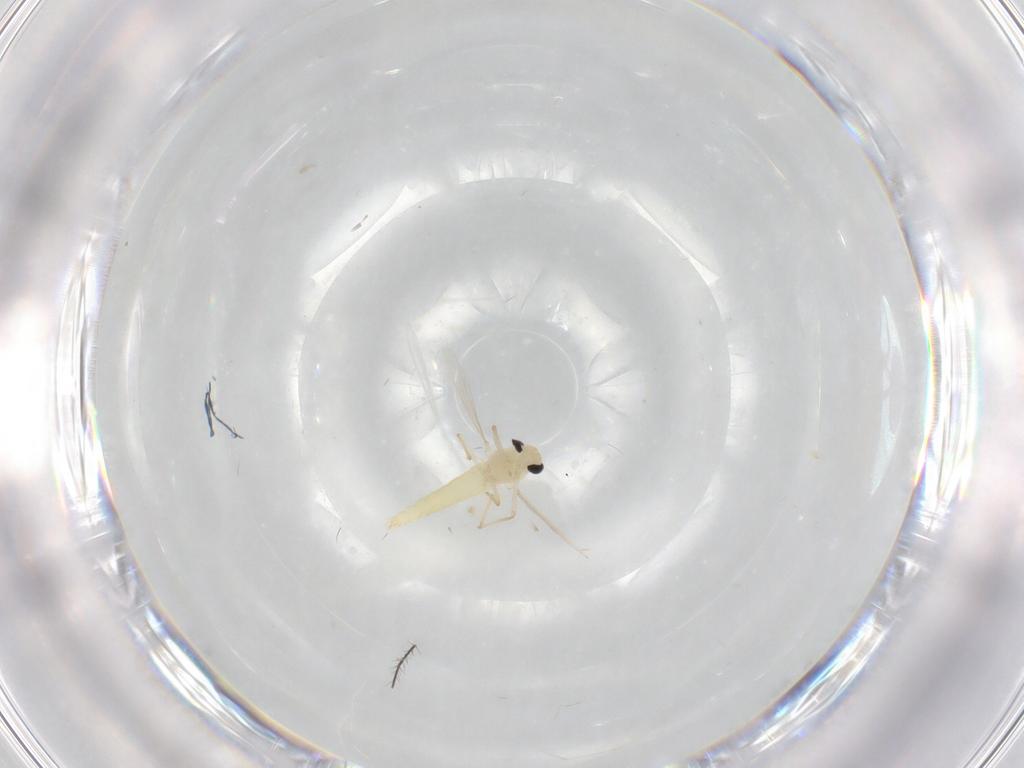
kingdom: Animalia
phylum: Arthropoda
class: Insecta
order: Diptera
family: Chironomidae
